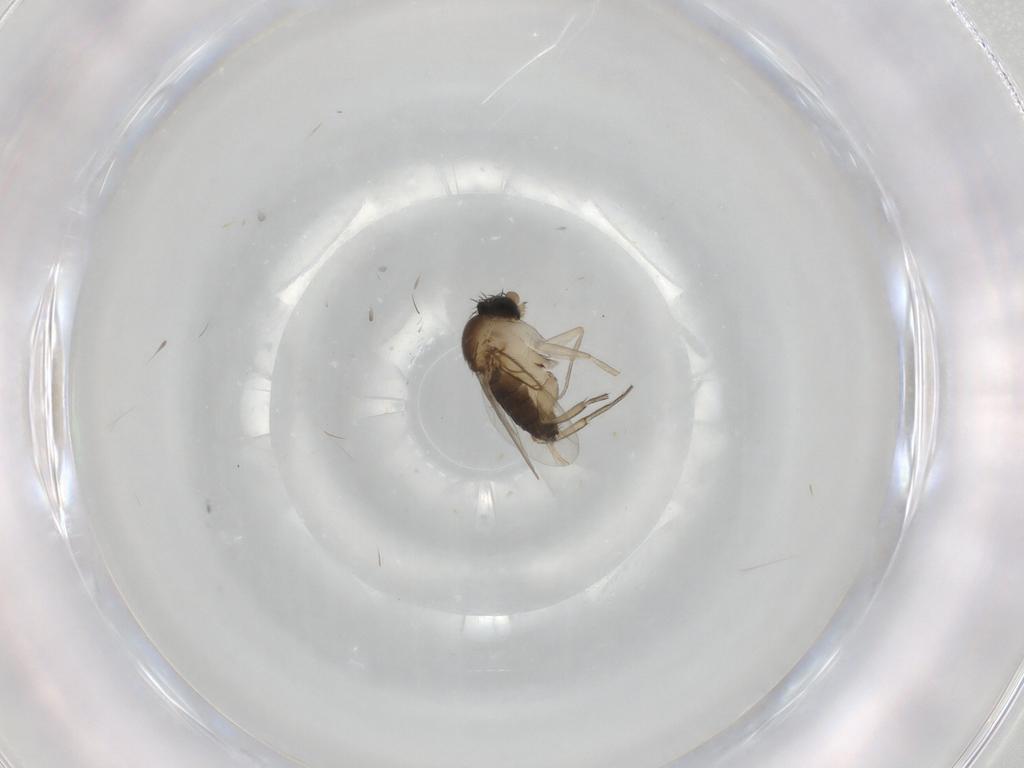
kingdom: Animalia
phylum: Arthropoda
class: Insecta
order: Diptera
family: Phoridae
